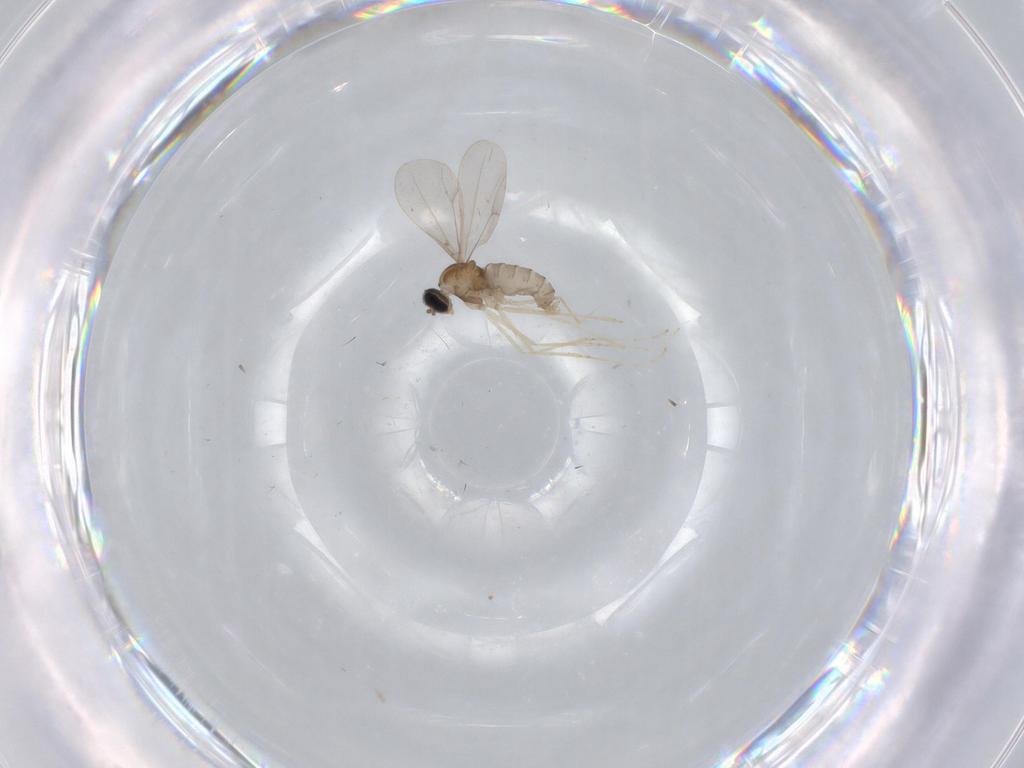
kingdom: Animalia
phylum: Arthropoda
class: Insecta
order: Diptera
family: Cecidomyiidae
